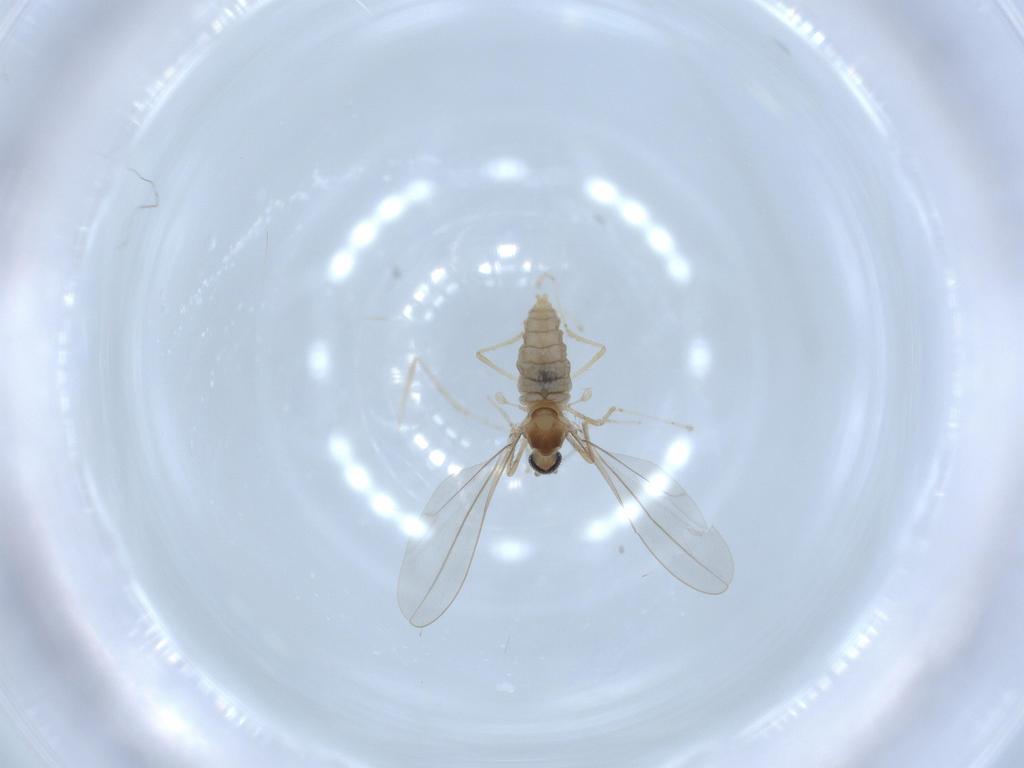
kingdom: Animalia
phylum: Arthropoda
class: Insecta
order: Diptera
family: Cecidomyiidae
